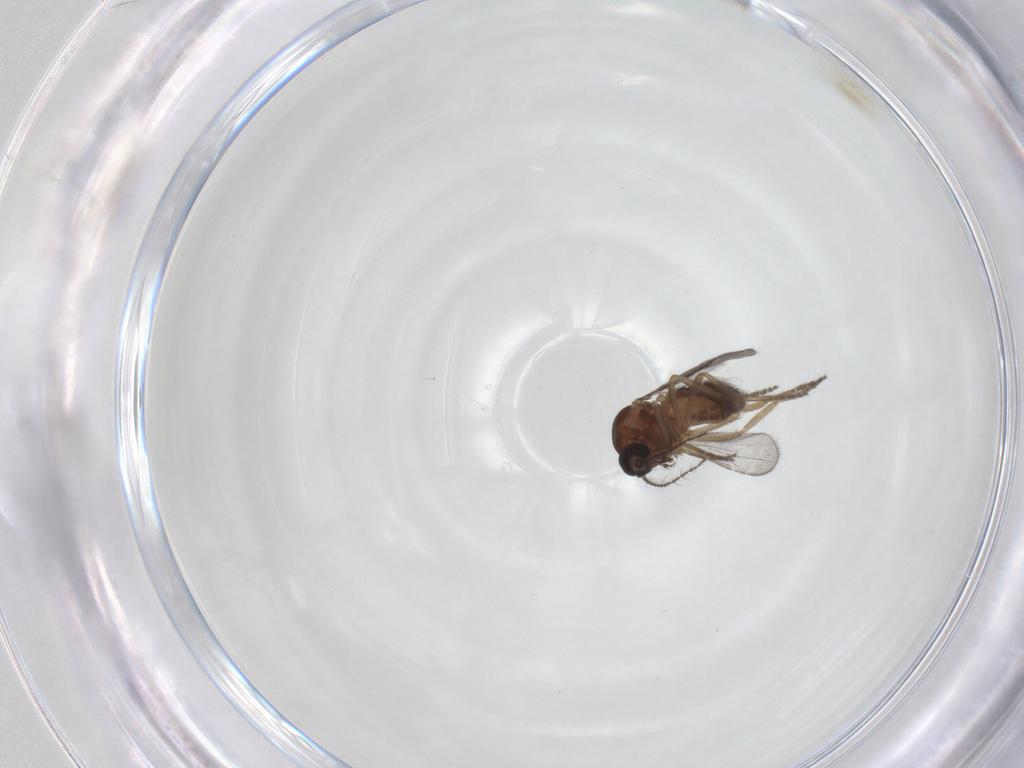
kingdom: Animalia
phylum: Arthropoda
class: Insecta
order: Diptera
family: Ceratopogonidae
